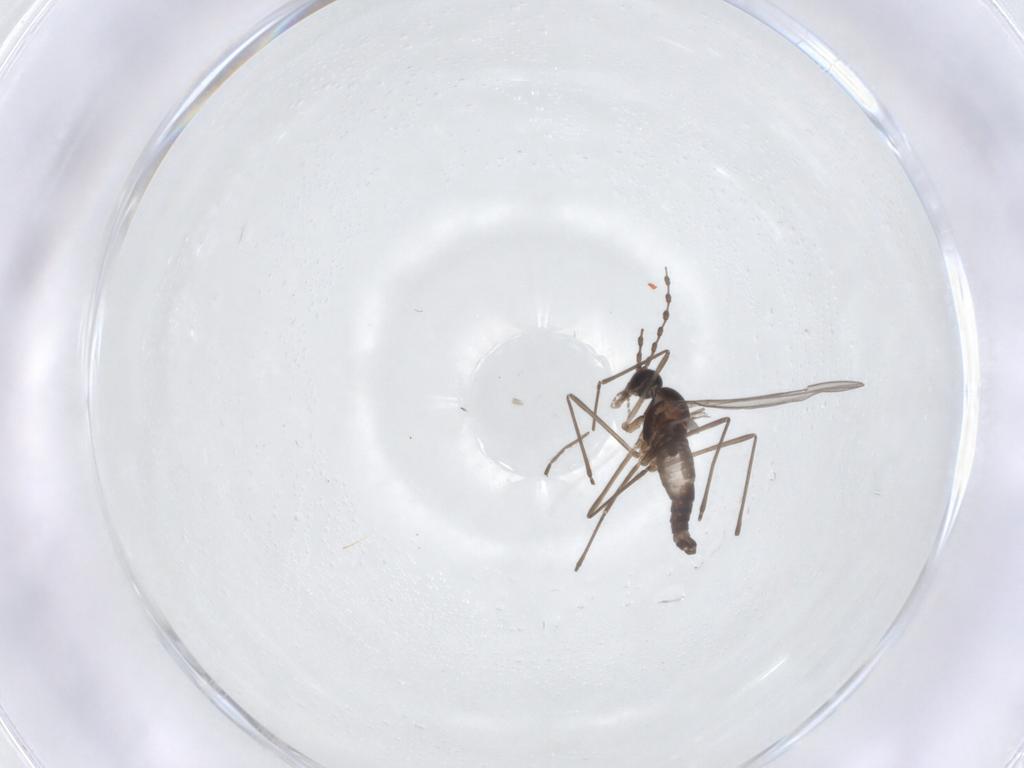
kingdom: Animalia
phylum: Arthropoda
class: Insecta
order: Diptera
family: Cecidomyiidae
